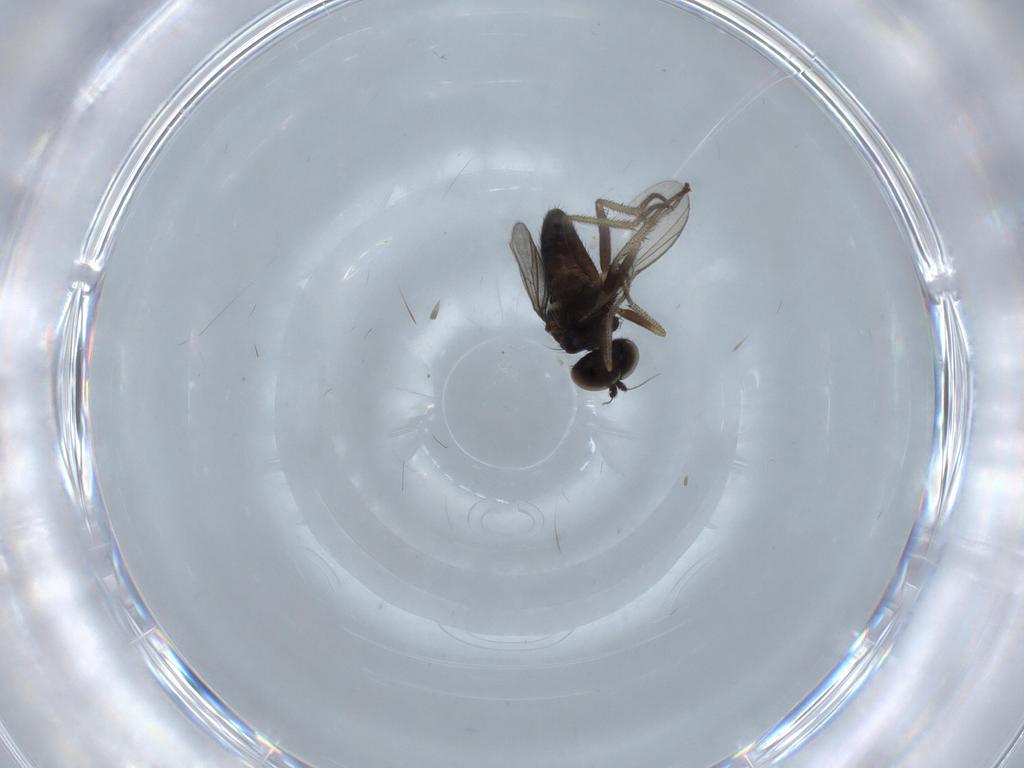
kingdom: Animalia
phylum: Arthropoda
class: Insecta
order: Diptera
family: Chironomidae
